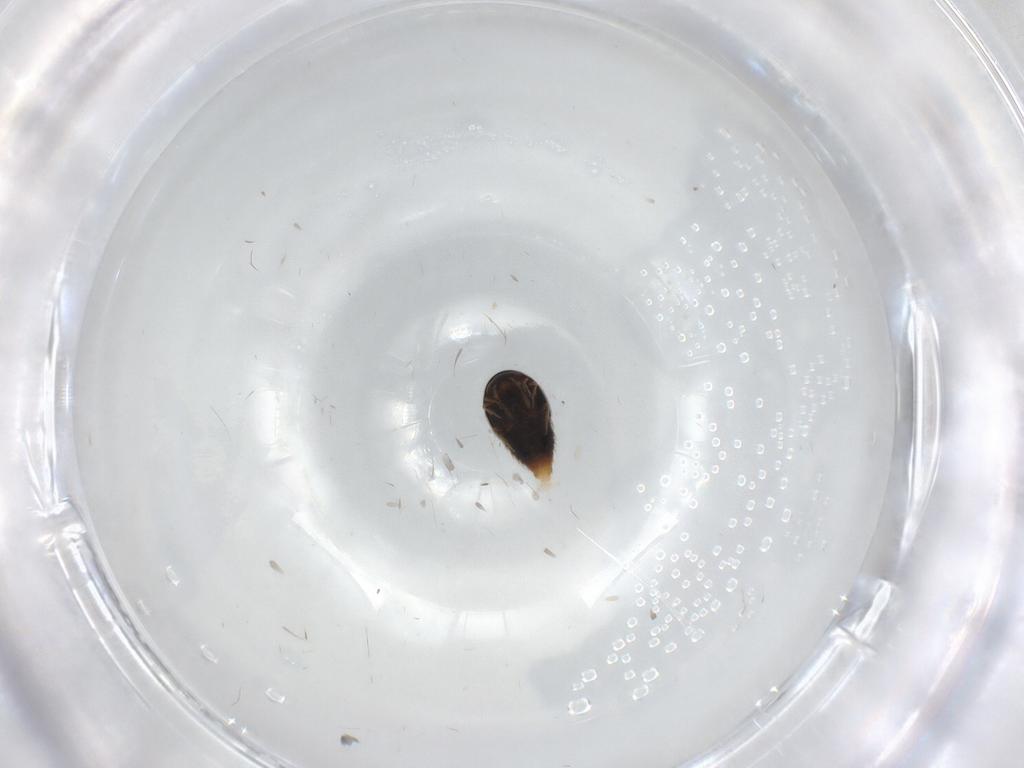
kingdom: Animalia
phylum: Arthropoda
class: Insecta
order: Coleoptera
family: Staphylinidae
